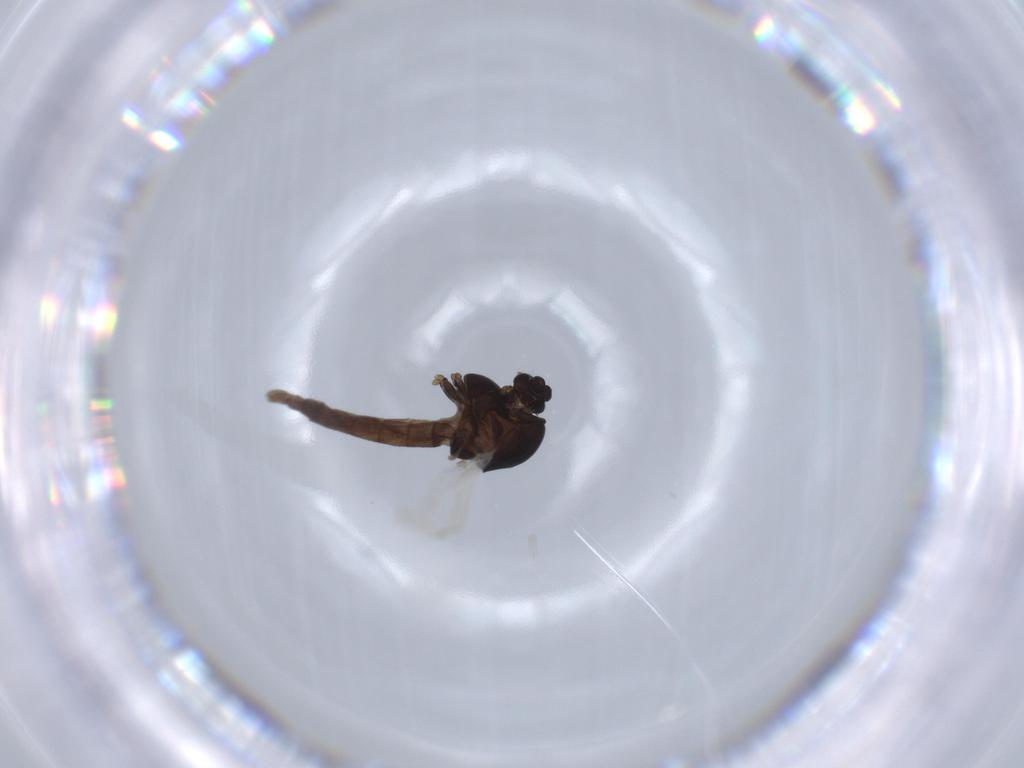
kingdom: Animalia
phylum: Arthropoda
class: Insecta
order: Diptera
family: Chironomidae
